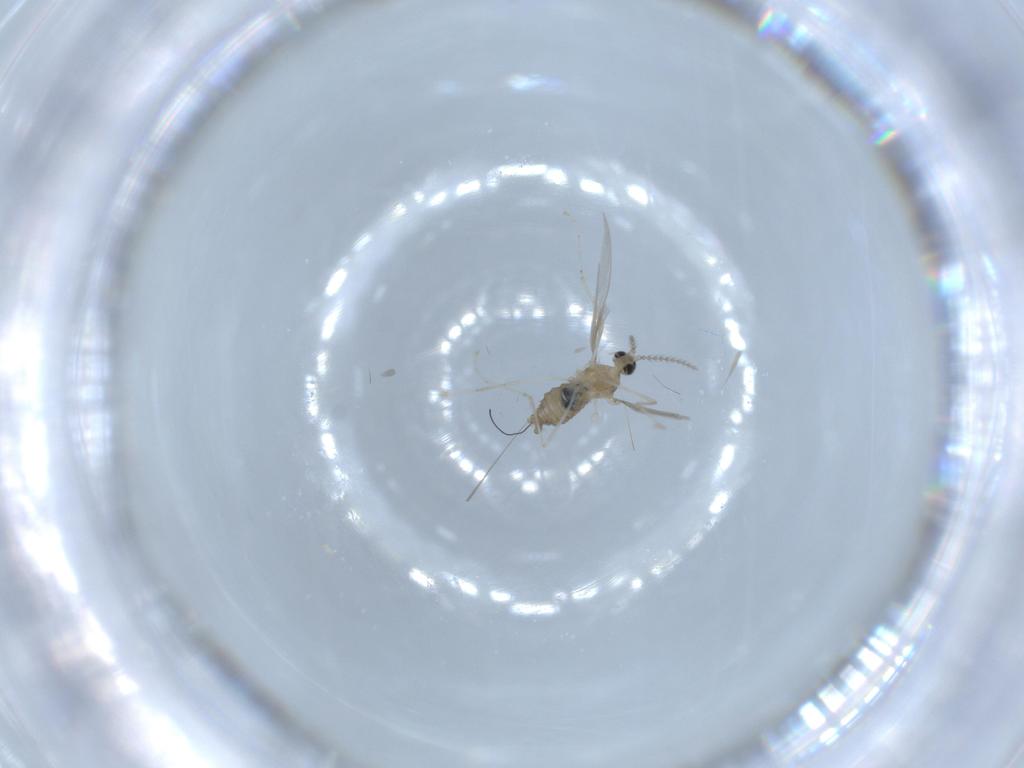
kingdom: Animalia
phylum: Arthropoda
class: Insecta
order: Diptera
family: Cecidomyiidae
